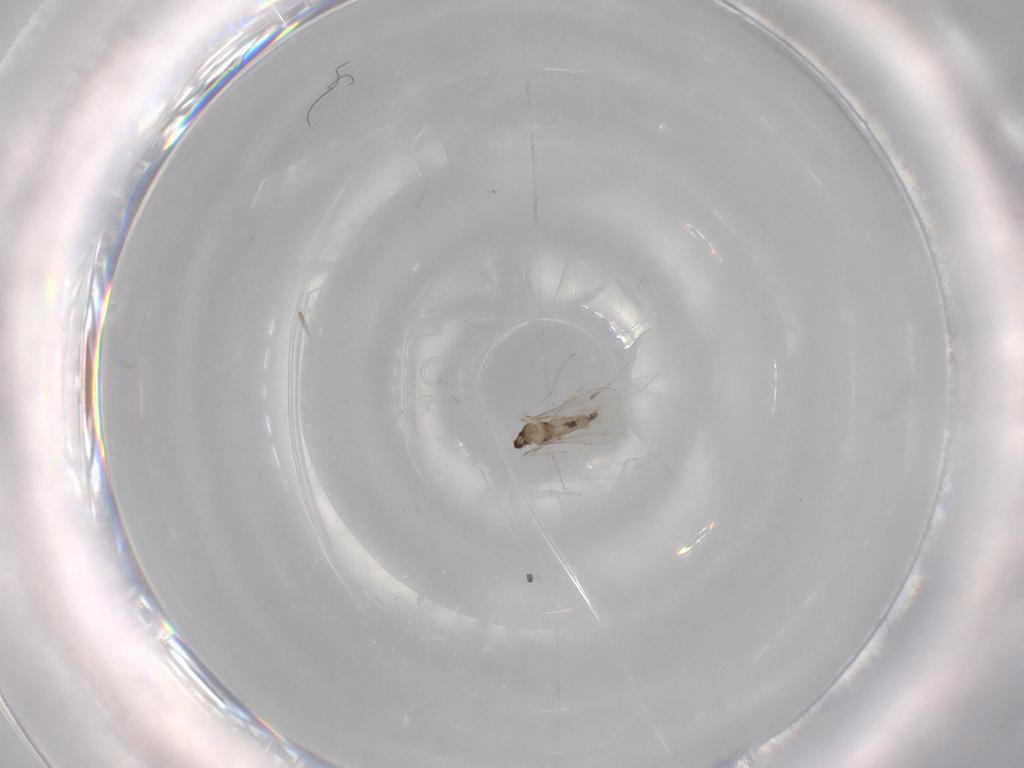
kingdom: Animalia
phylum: Arthropoda
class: Insecta
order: Diptera
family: Cecidomyiidae
